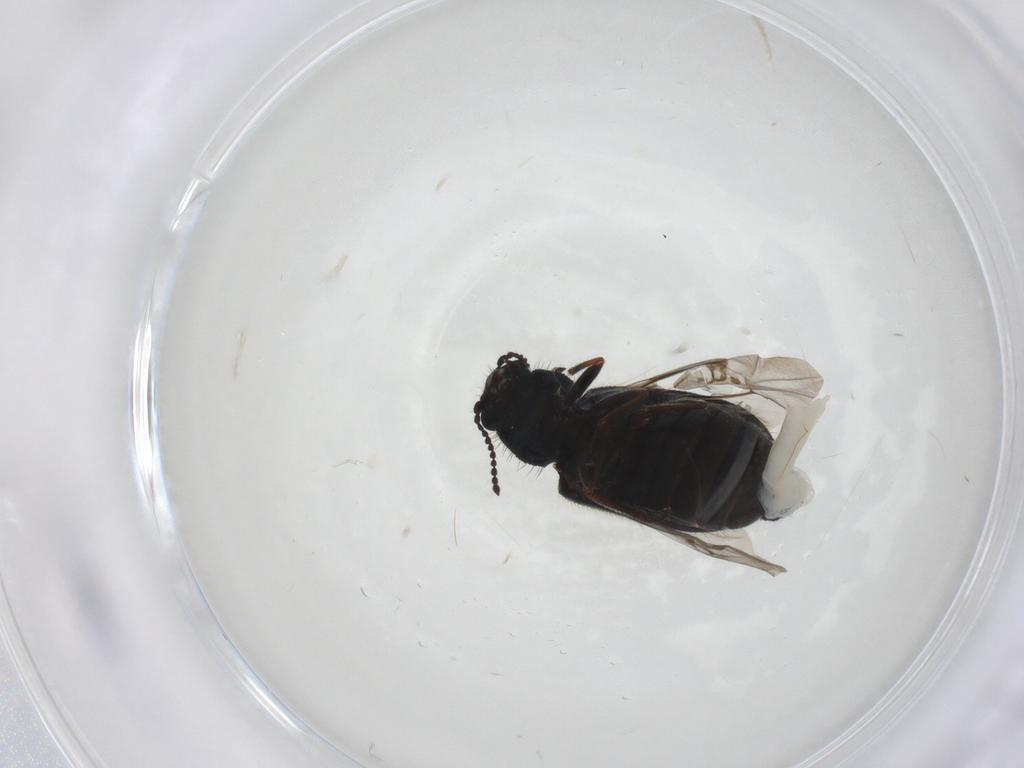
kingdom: Animalia
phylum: Arthropoda
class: Insecta
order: Coleoptera
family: Melyridae
